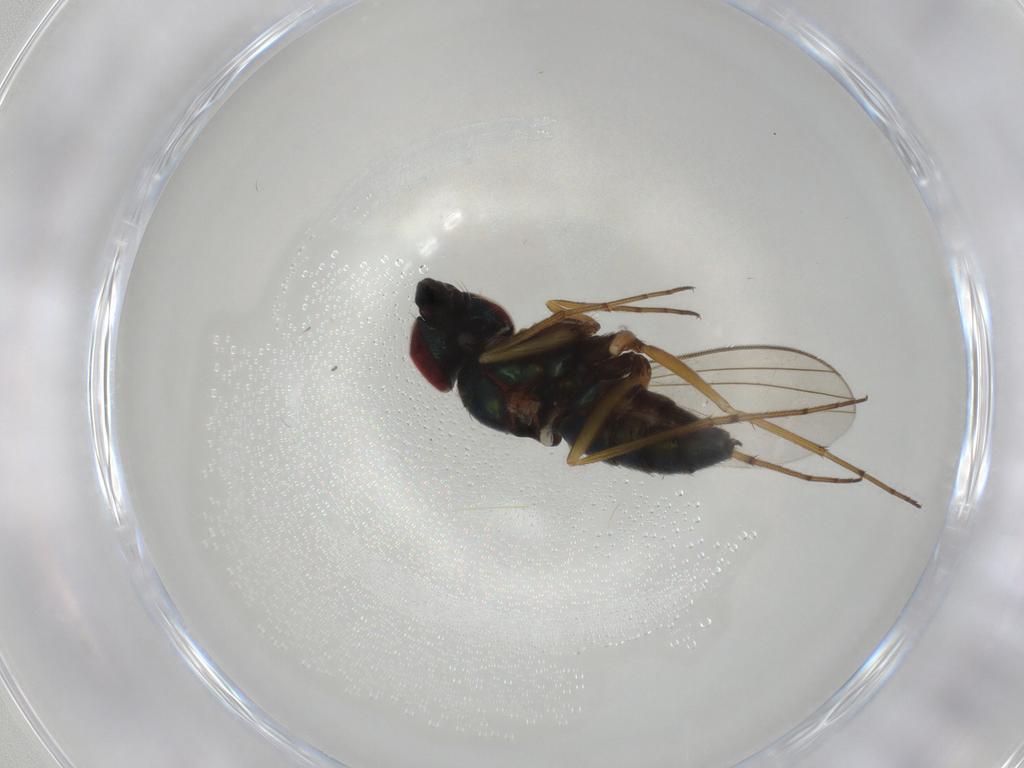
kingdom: Animalia
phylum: Arthropoda
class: Insecta
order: Diptera
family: Dolichopodidae
